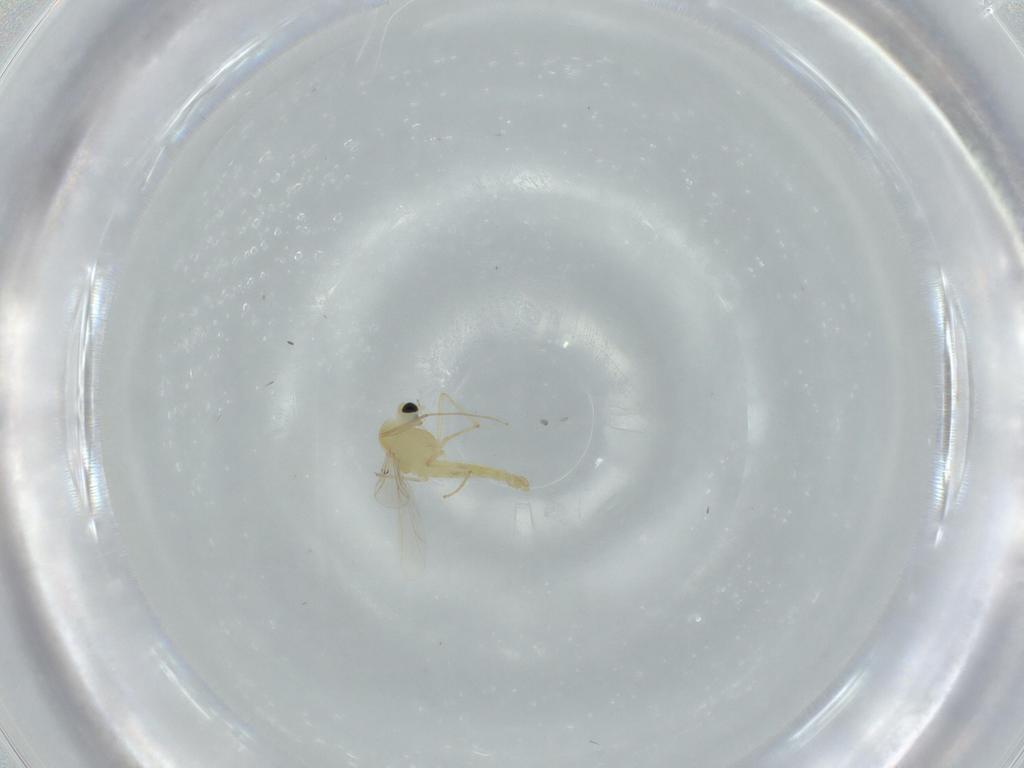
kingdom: Animalia
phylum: Arthropoda
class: Insecta
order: Diptera
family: Chironomidae
